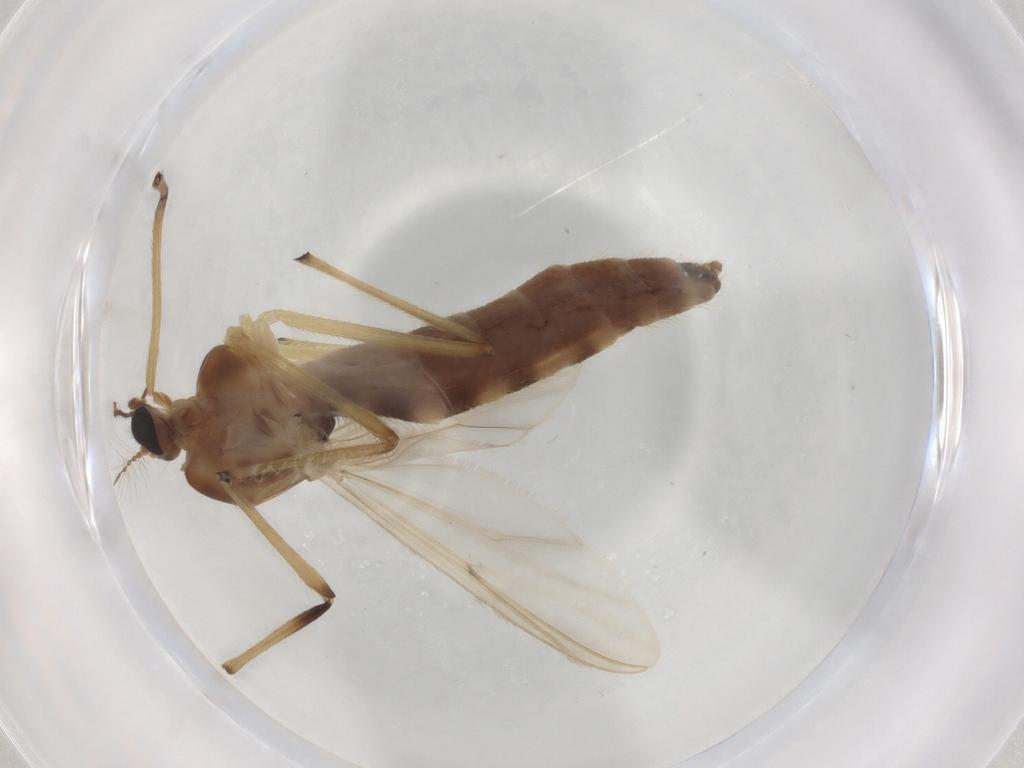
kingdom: Animalia
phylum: Arthropoda
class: Insecta
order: Diptera
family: Chironomidae
